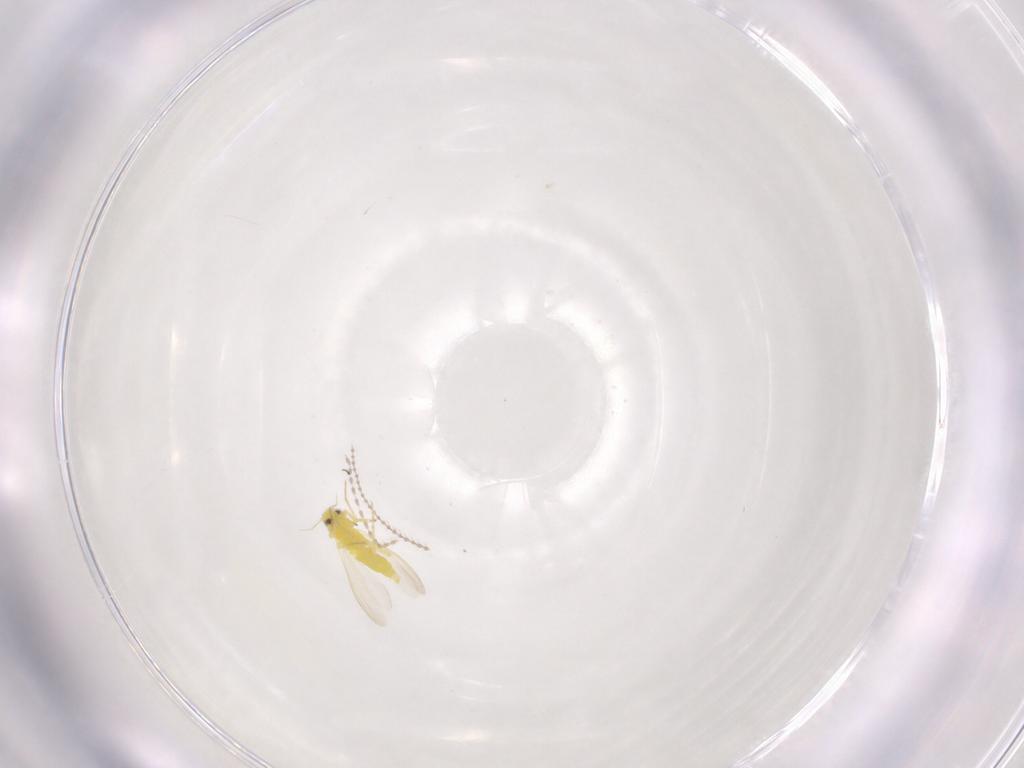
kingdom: Animalia
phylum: Arthropoda
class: Insecta
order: Hemiptera
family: Aleyrodidae
